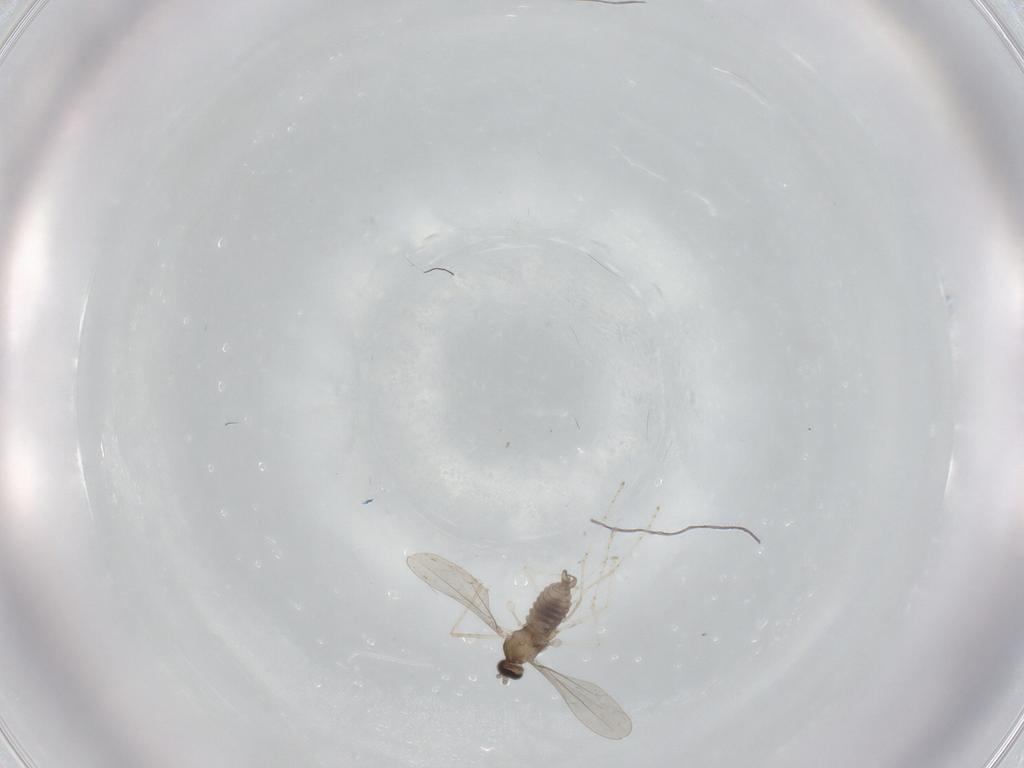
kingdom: Animalia
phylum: Arthropoda
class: Insecta
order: Diptera
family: Cecidomyiidae
